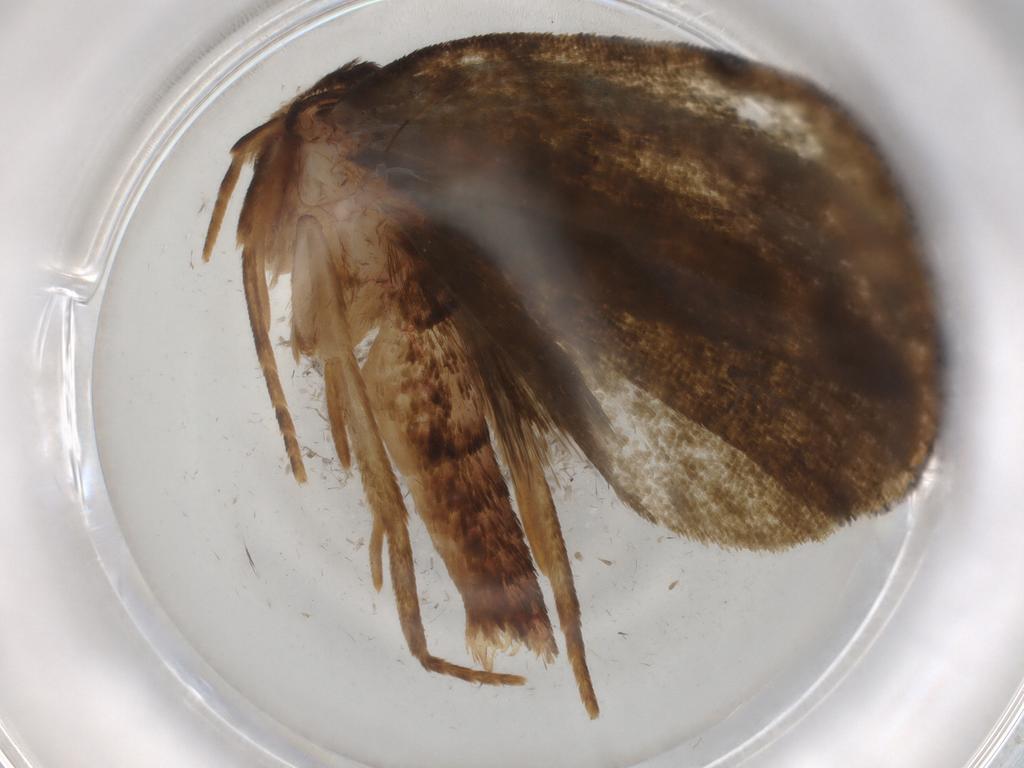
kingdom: Animalia
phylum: Arthropoda
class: Insecta
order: Lepidoptera
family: Geometridae
